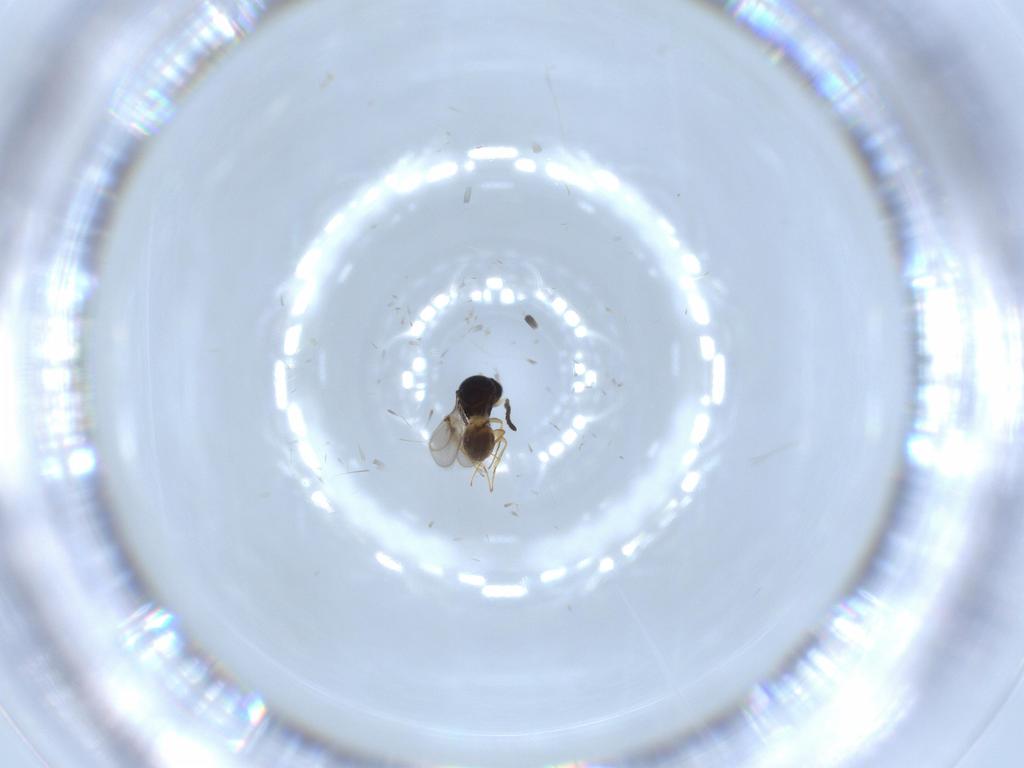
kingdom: Animalia
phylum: Arthropoda
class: Arachnida
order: Araneae
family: Pholcidae
